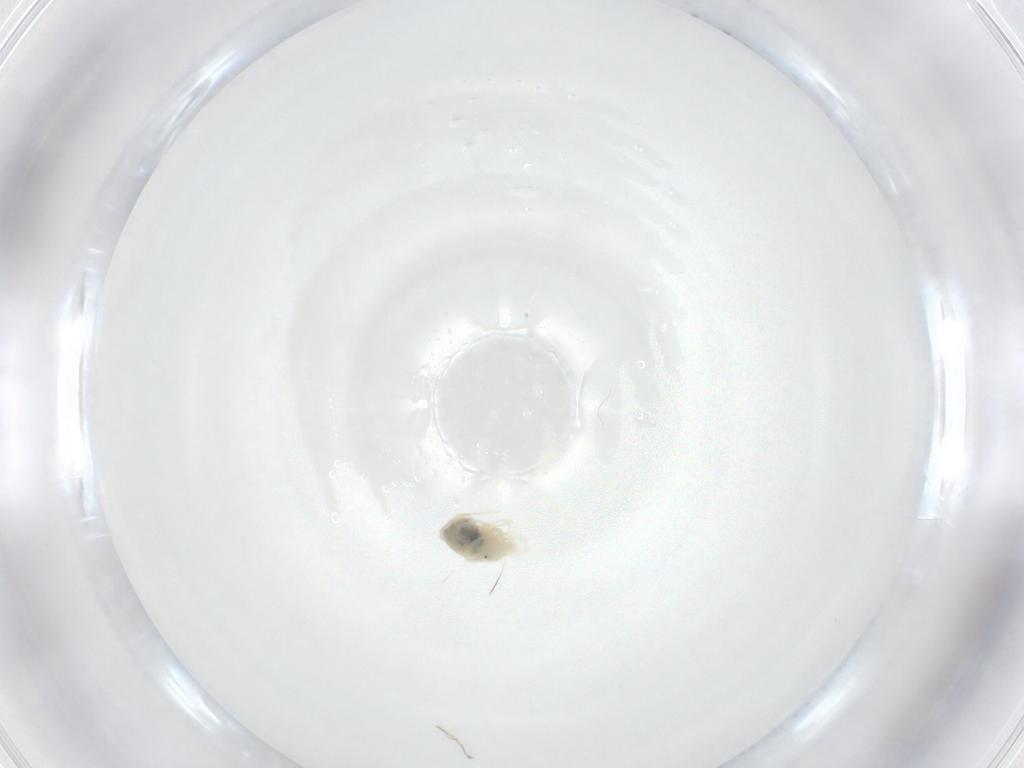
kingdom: Animalia
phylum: Arthropoda
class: Arachnida
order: Trombidiformes
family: Eupodidae
